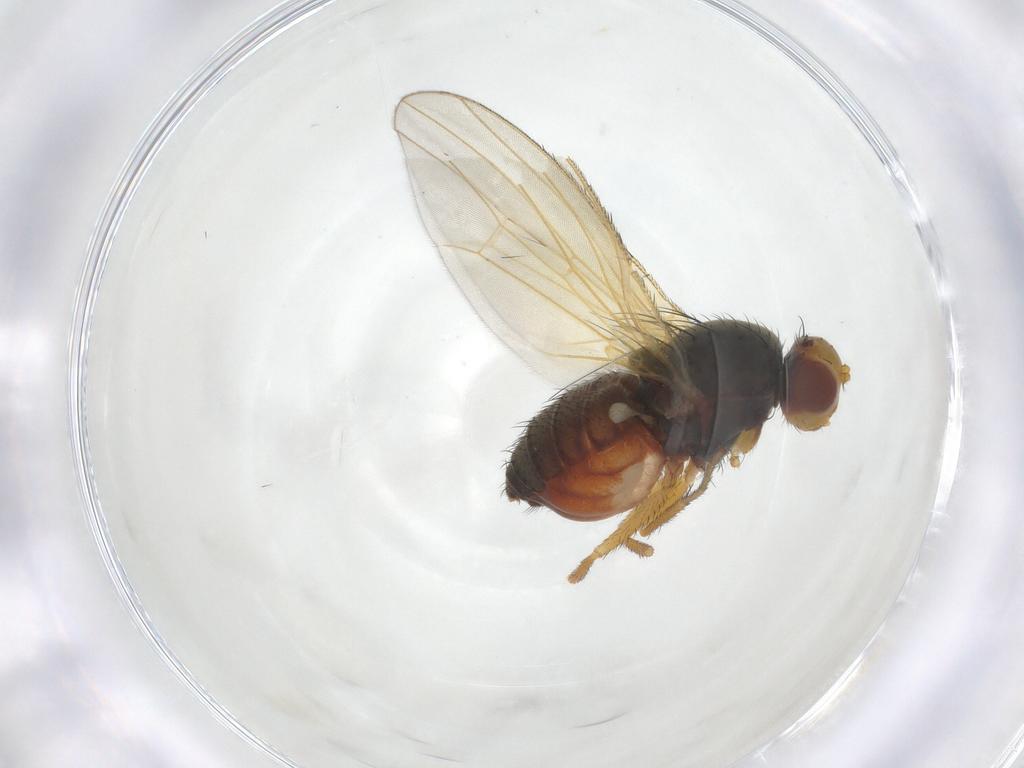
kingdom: Animalia
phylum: Arthropoda
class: Insecta
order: Diptera
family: Heleomyzidae
